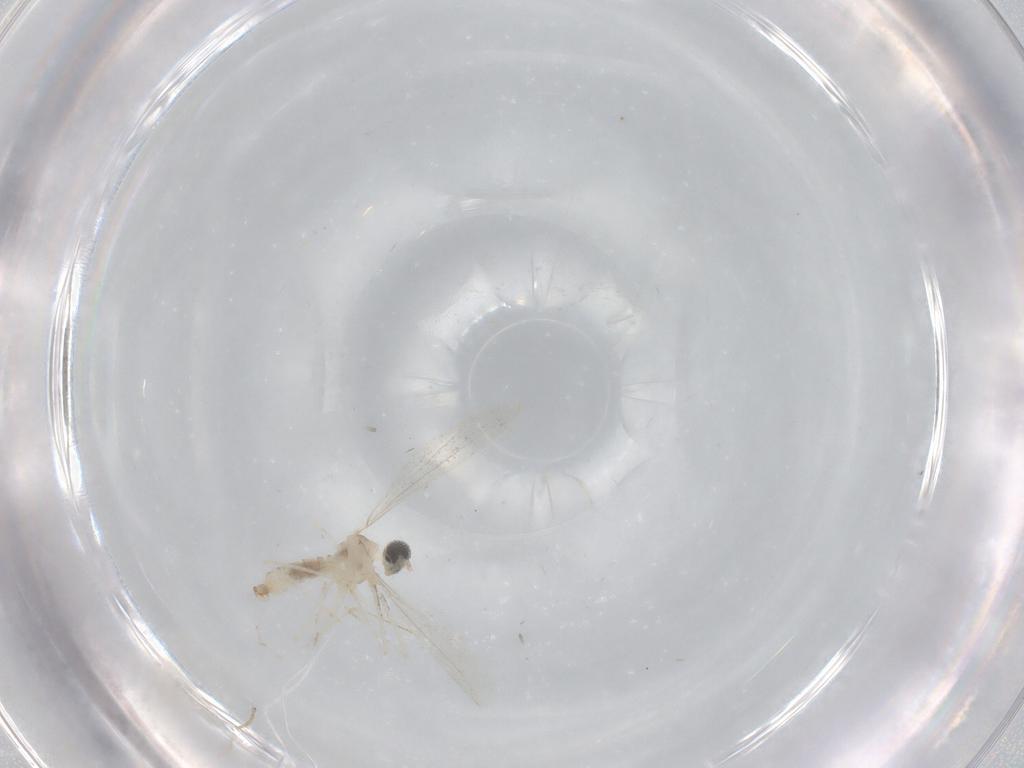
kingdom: Animalia
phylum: Arthropoda
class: Insecta
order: Diptera
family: Cecidomyiidae
